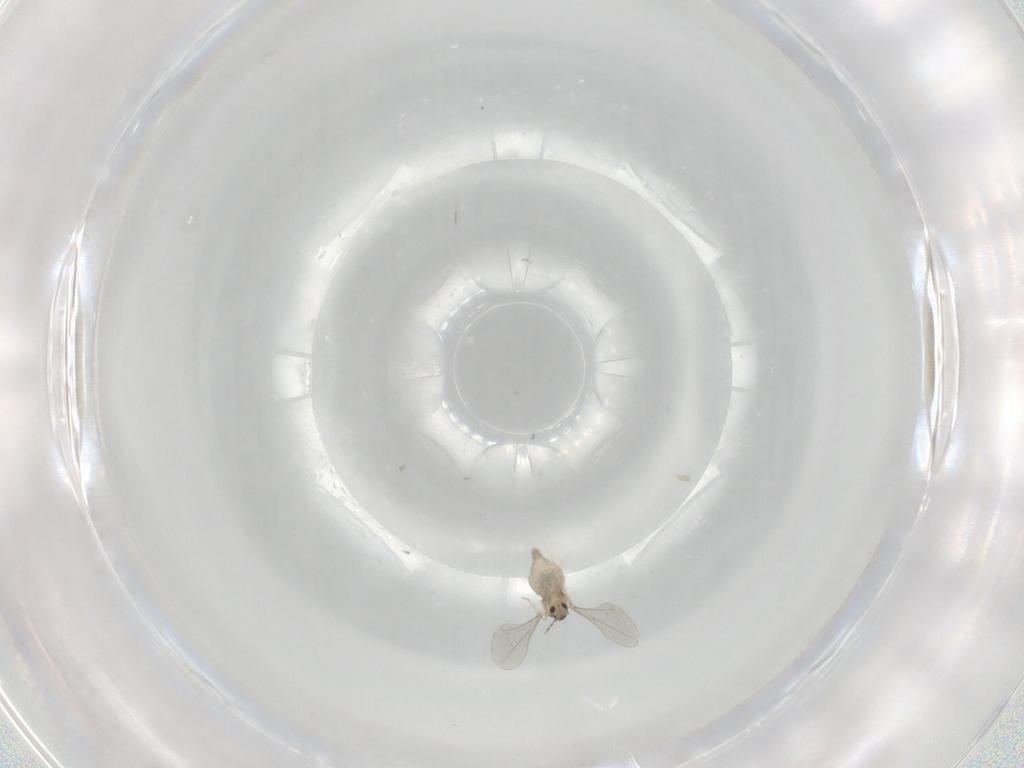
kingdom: Animalia
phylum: Arthropoda
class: Insecta
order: Diptera
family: Cecidomyiidae
